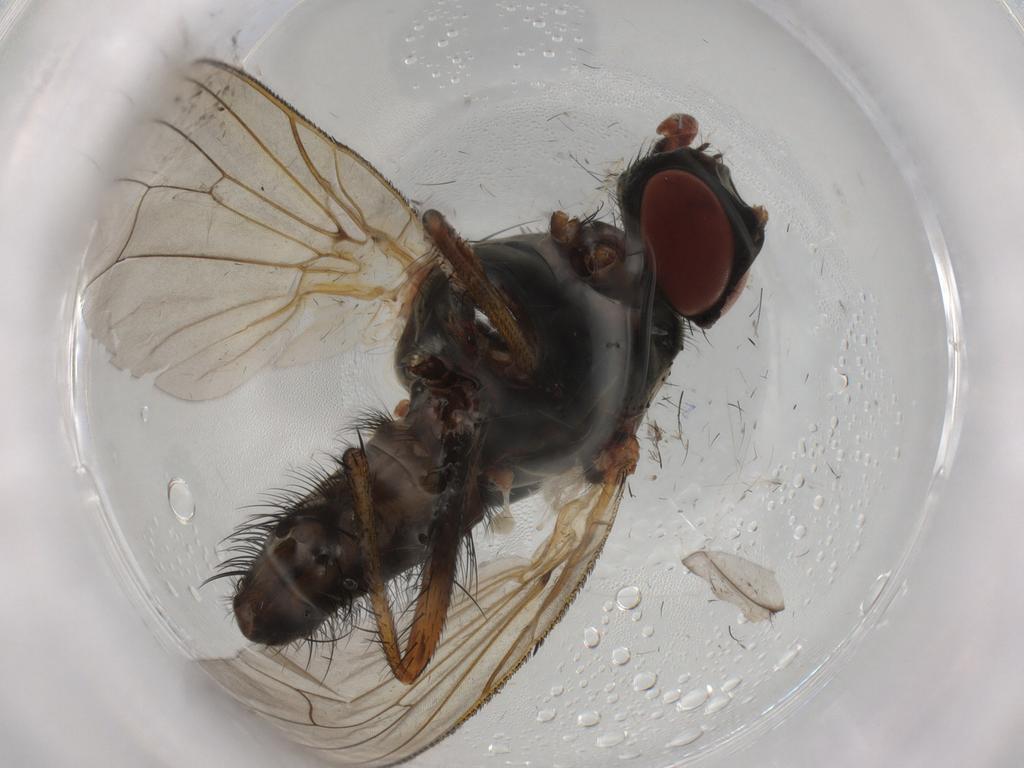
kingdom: Animalia
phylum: Arthropoda
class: Insecta
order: Diptera
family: Anthomyiidae
